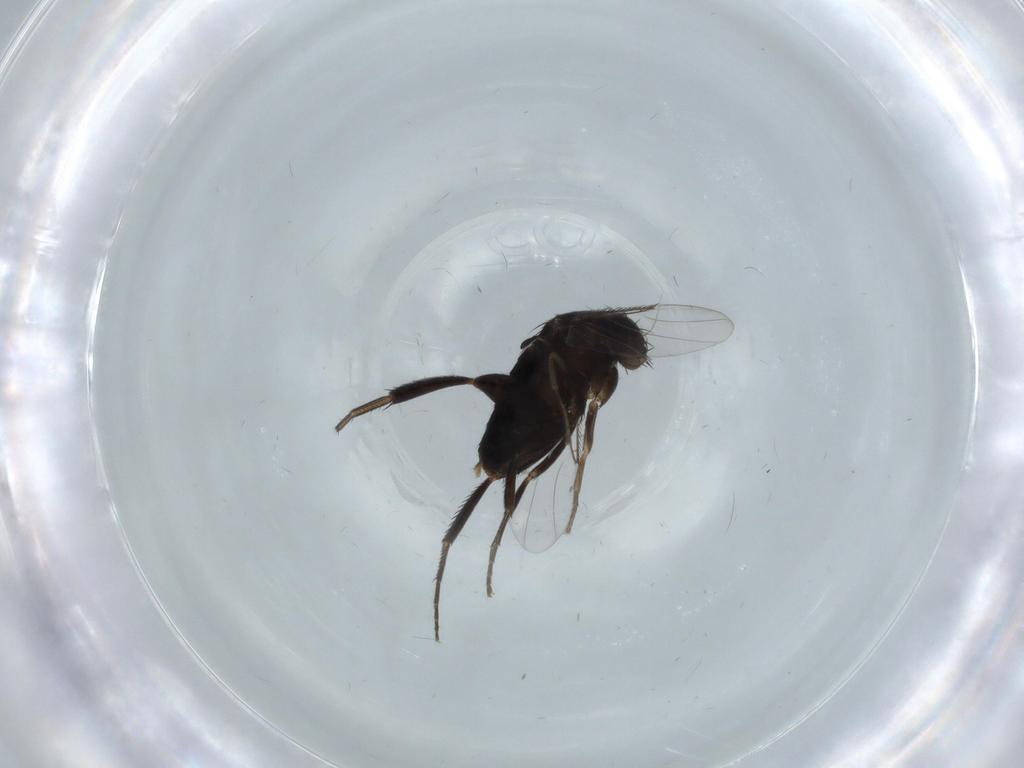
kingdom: Animalia
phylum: Arthropoda
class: Insecta
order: Diptera
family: Phoridae
